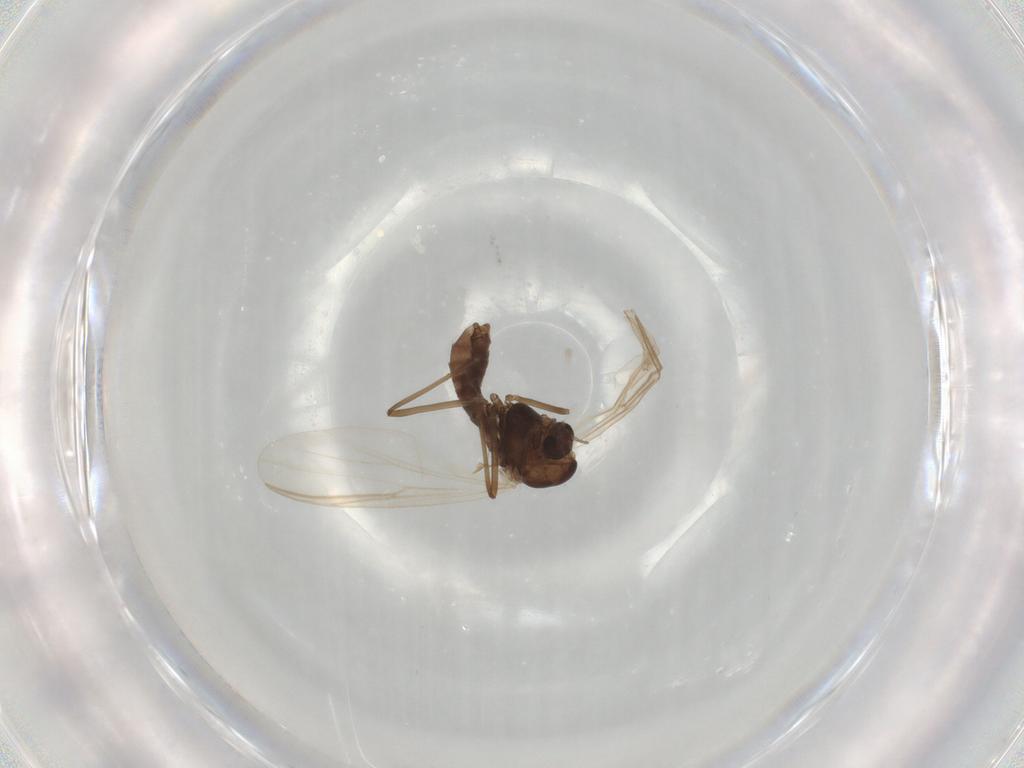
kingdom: Animalia
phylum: Arthropoda
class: Insecta
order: Diptera
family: Chironomidae
